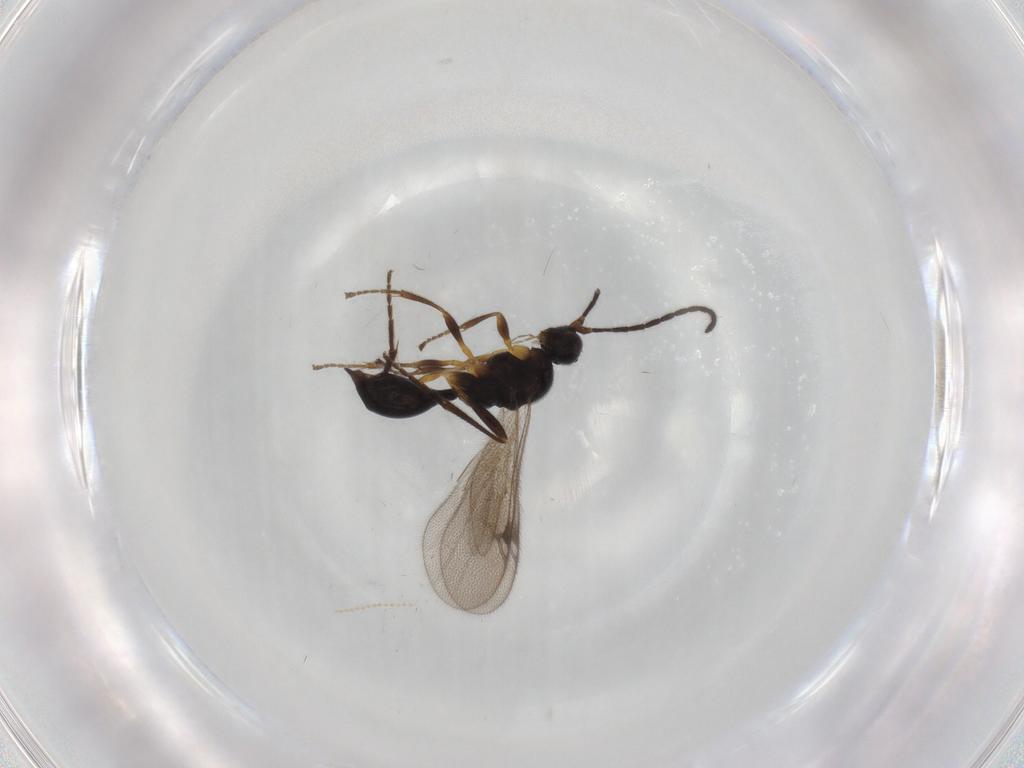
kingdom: Animalia
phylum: Arthropoda
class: Insecta
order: Hymenoptera
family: Proctotrupidae
